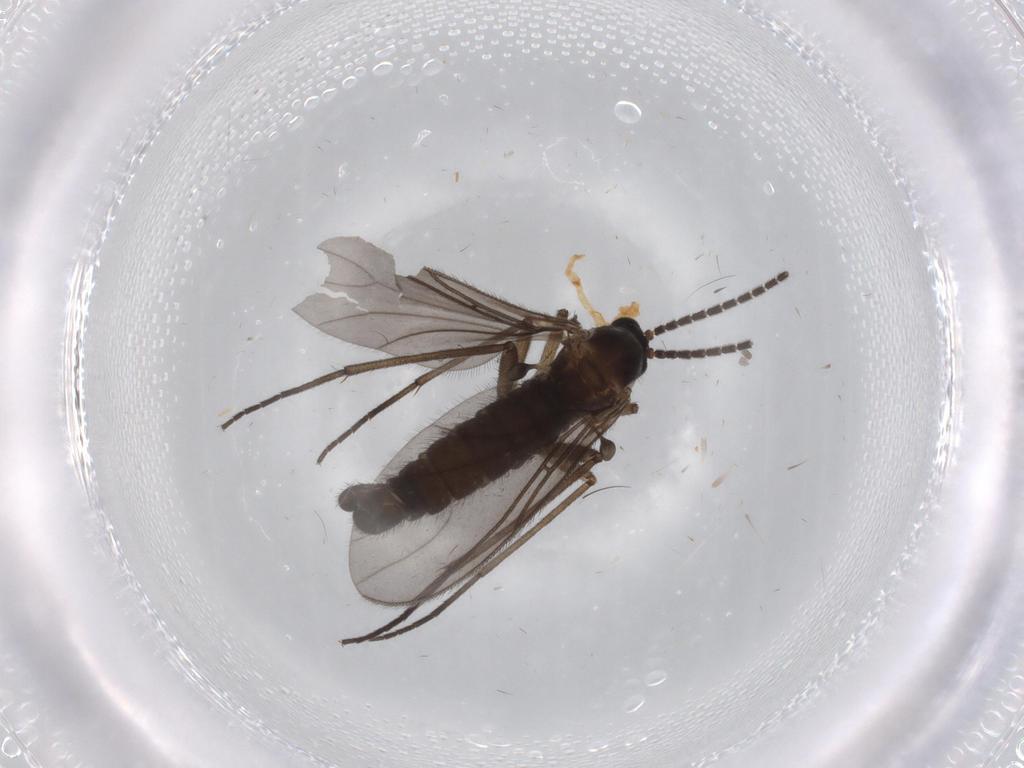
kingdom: Animalia
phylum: Arthropoda
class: Insecta
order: Diptera
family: Sciaridae
